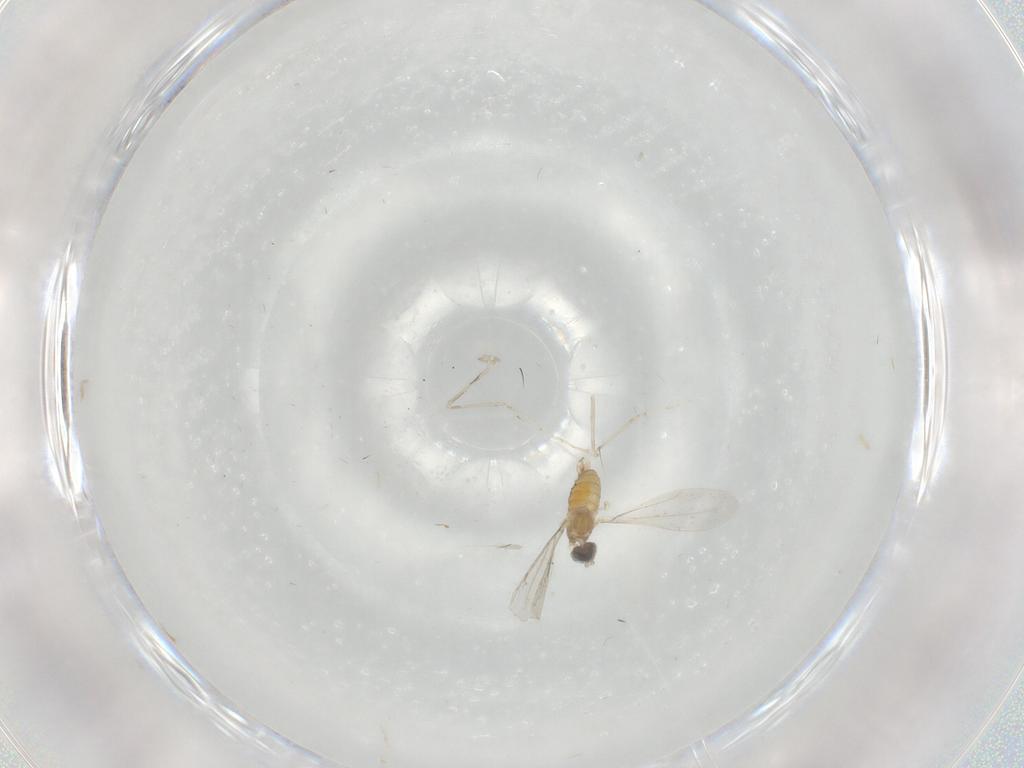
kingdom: Animalia
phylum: Arthropoda
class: Insecta
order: Diptera
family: Cecidomyiidae
